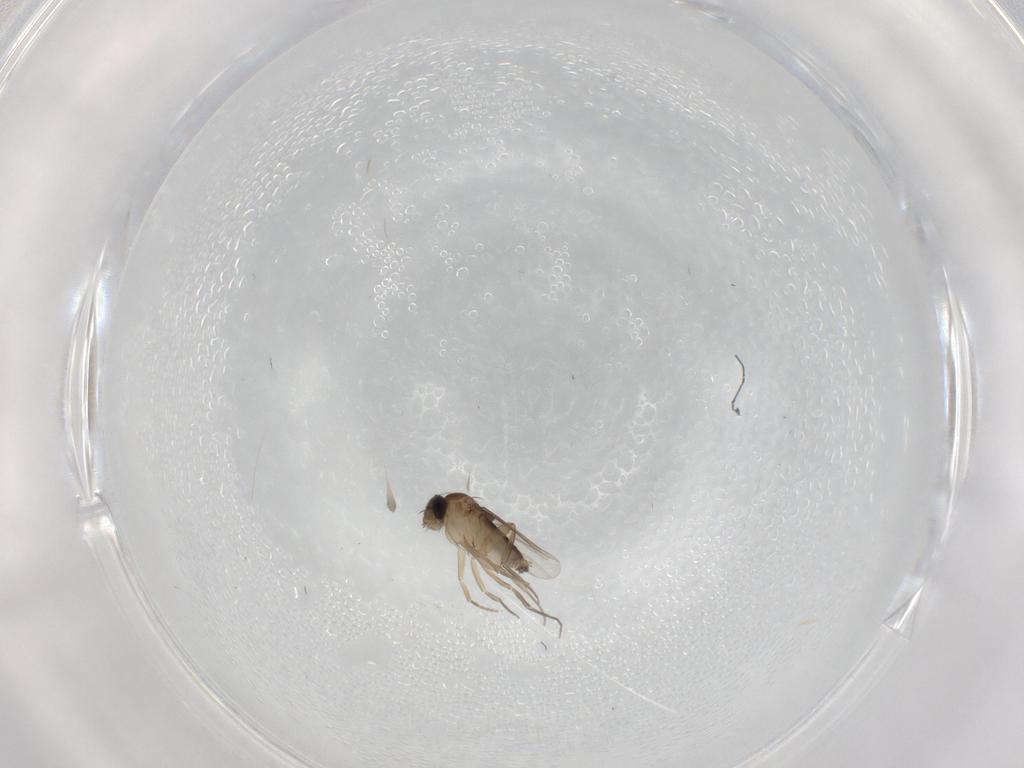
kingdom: Animalia
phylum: Arthropoda
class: Insecta
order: Diptera
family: Phoridae
